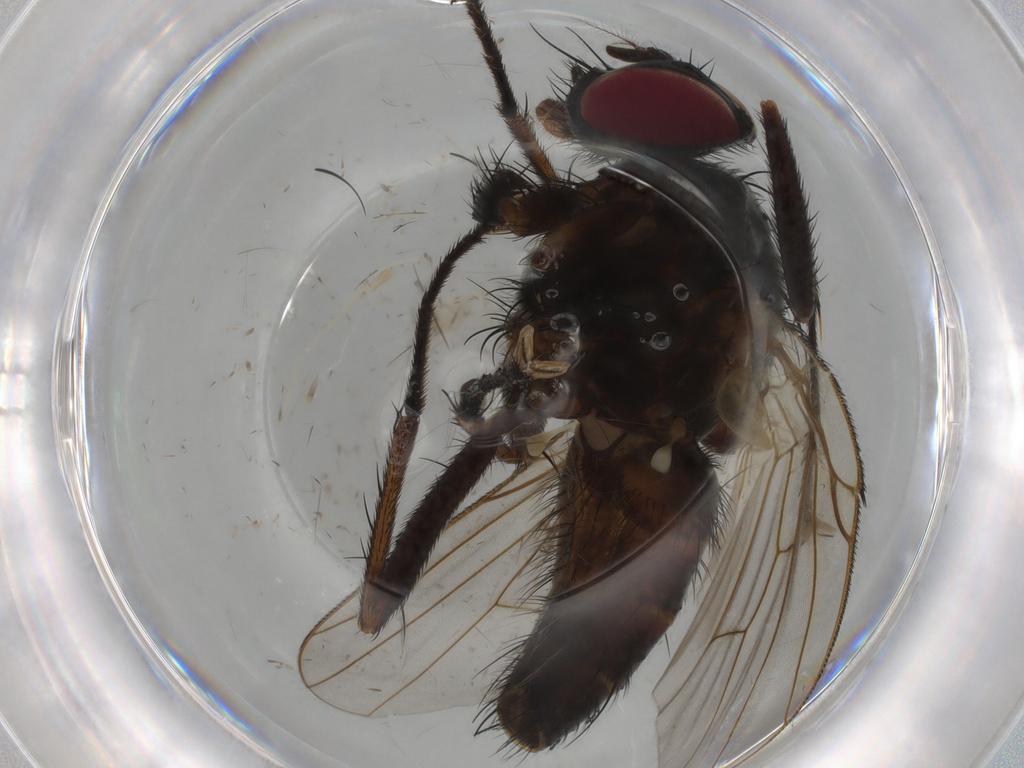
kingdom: Animalia
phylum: Arthropoda
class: Insecta
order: Diptera
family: Muscidae
